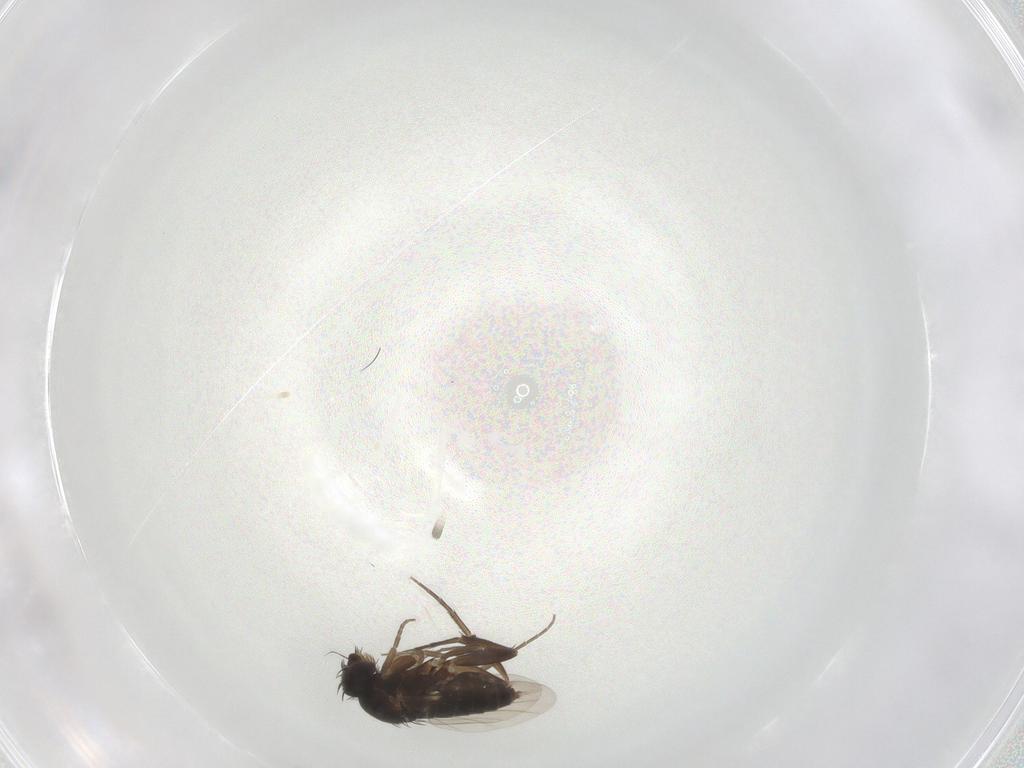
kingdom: Animalia
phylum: Arthropoda
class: Insecta
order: Diptera
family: Phoridae
